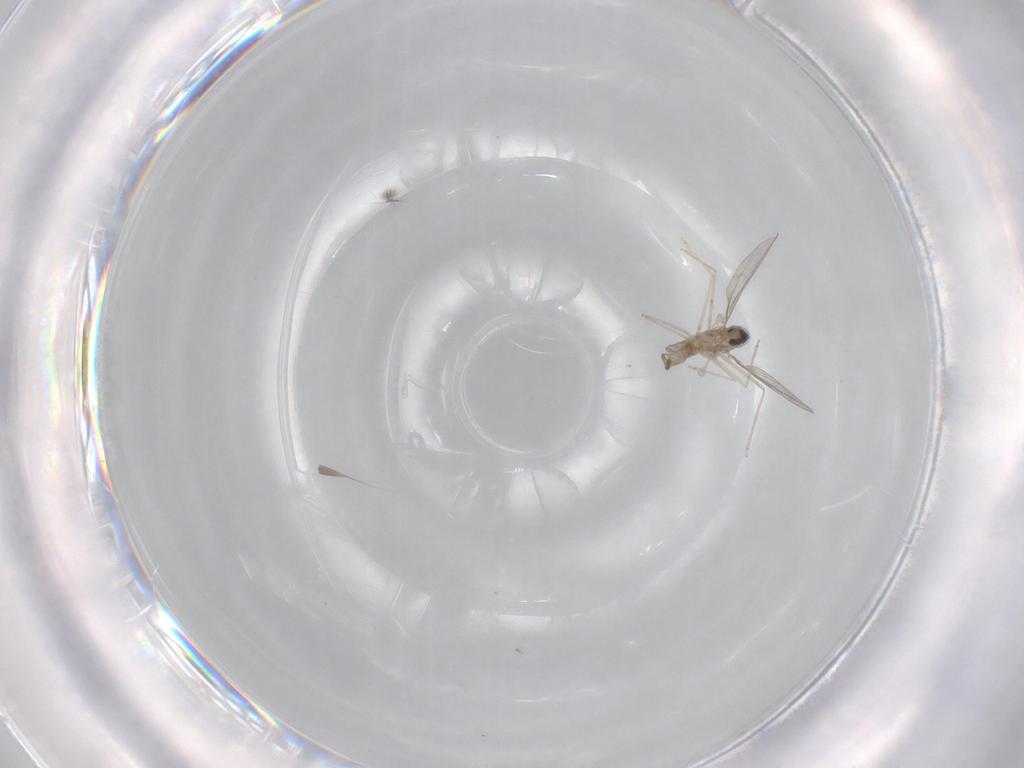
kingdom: Animalia
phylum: Arthropoda
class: Insecta
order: Diptera
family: Cecidomyiidae
